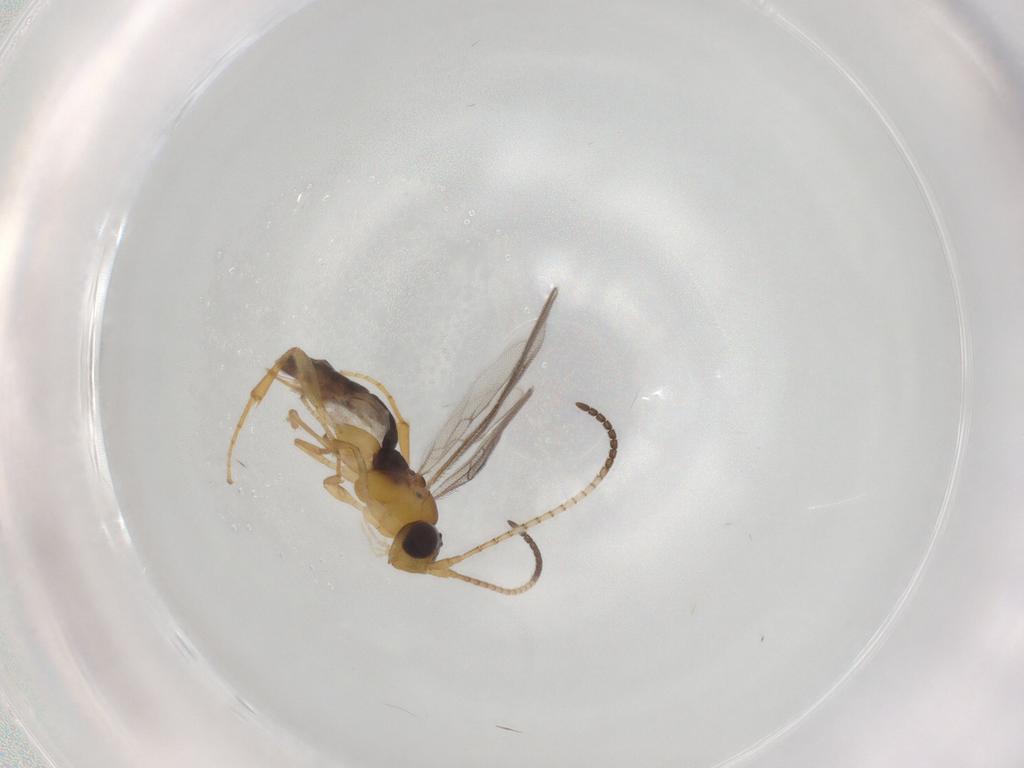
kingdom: Animalia
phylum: Arthropoda
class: Insecta
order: Hymenoptera
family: Ichneumonidae
